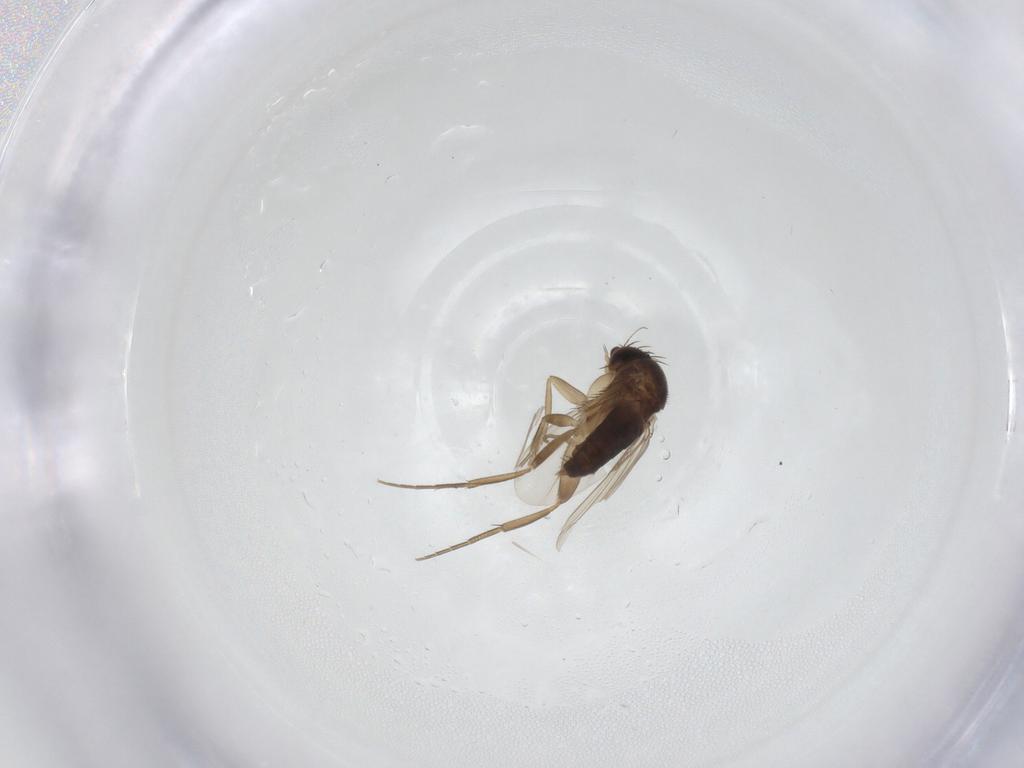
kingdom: Animalia
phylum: Arthropoda
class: Insecta
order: Diptera
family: Phoridae
